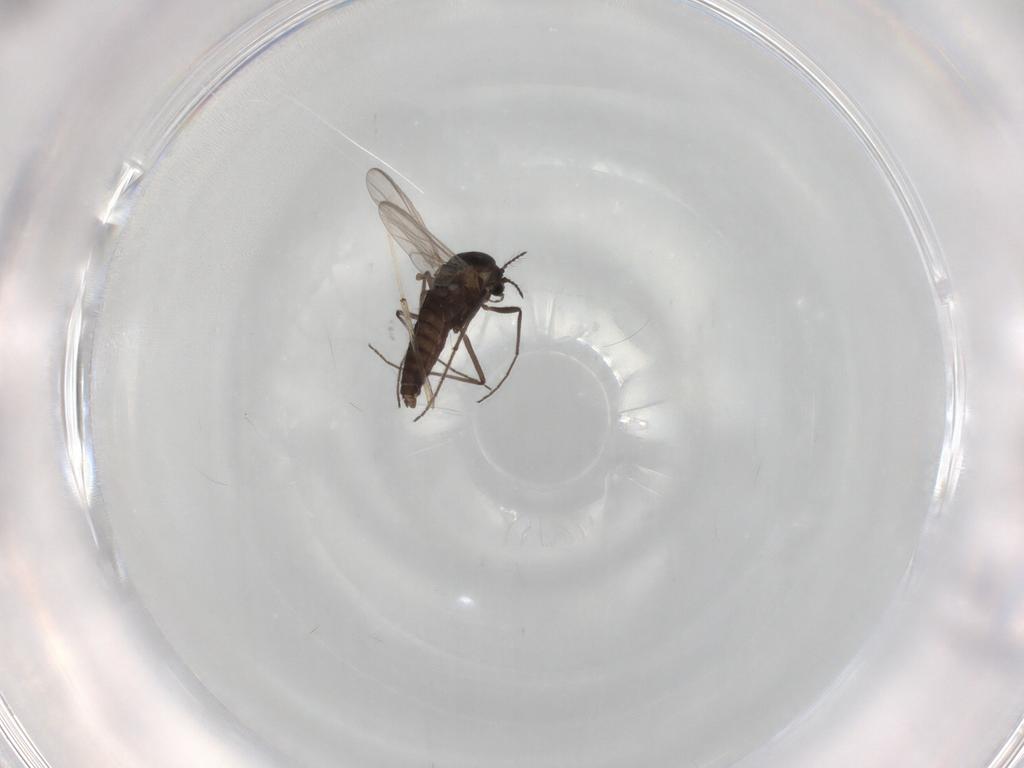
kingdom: Animalia
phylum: Arthropoda
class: Insecta
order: Diptera
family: Chironomidae
